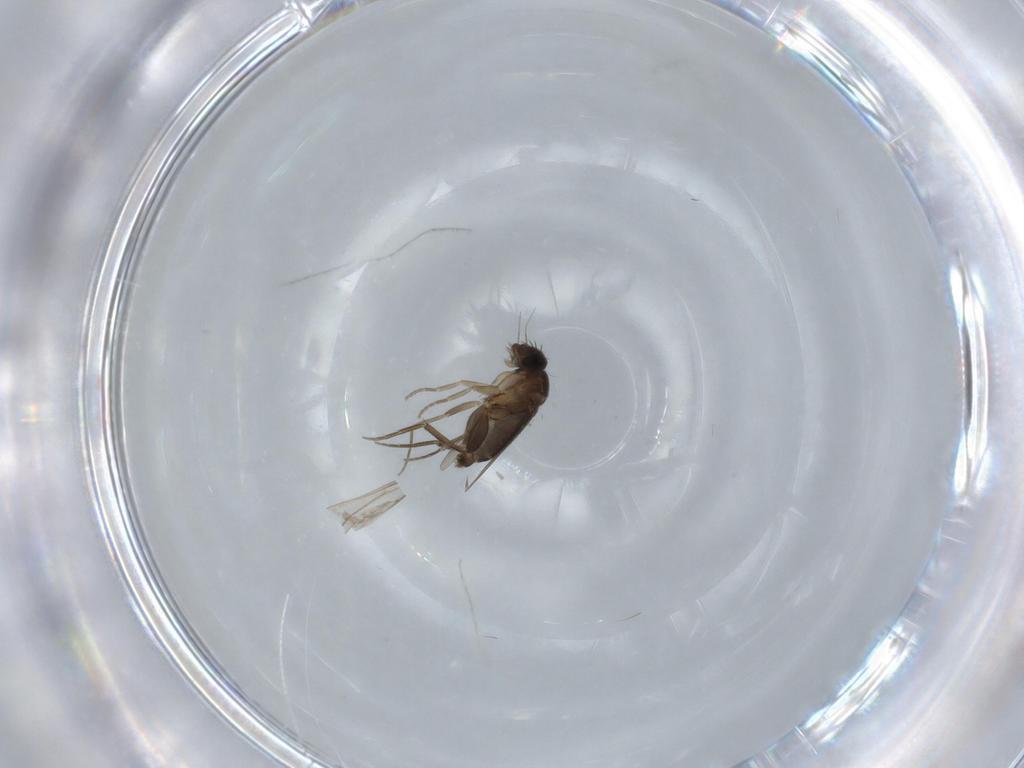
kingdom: Animalia
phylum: Arthropoda
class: Insecta
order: Diptera
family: Phoridae
